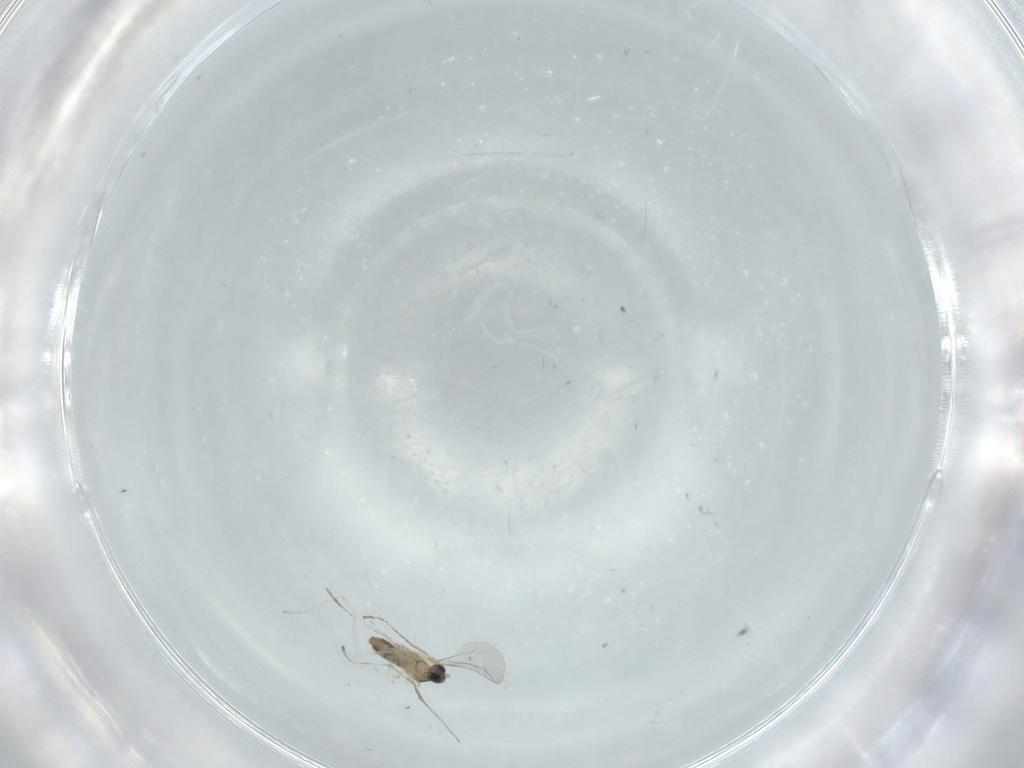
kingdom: Animalia
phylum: Arthropoda
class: Insecta
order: Diptera
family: Cecidomyiidae
